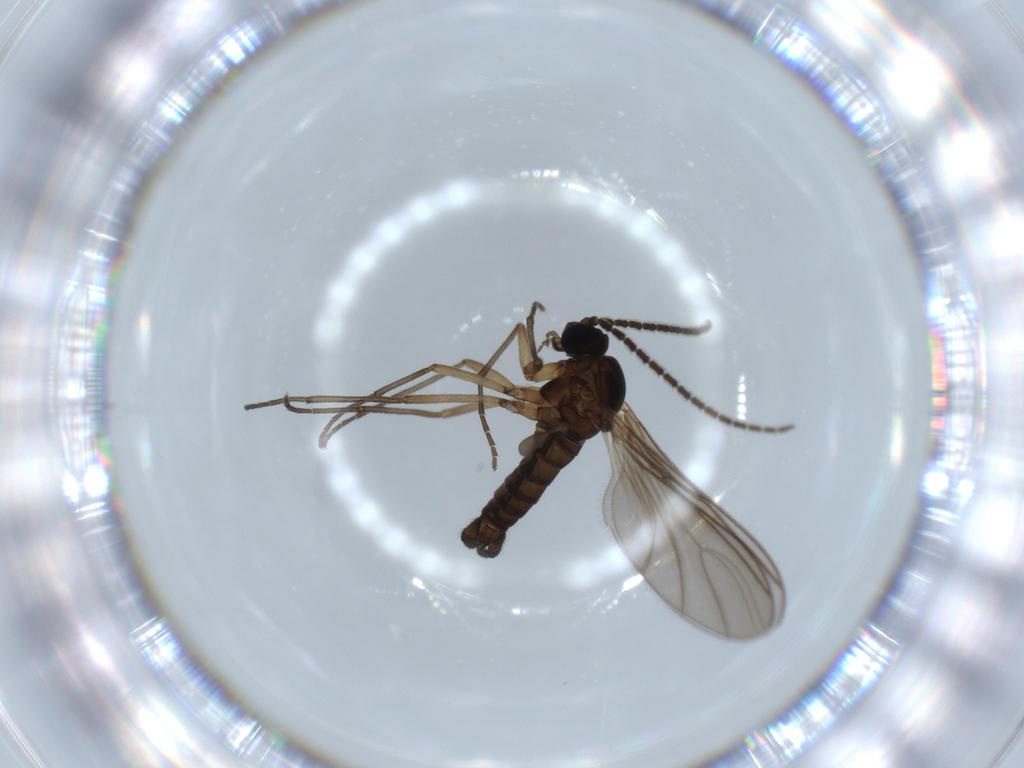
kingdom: Animalia
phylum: Arthropoda
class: Insecta
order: Diptera
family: Sciaridae
